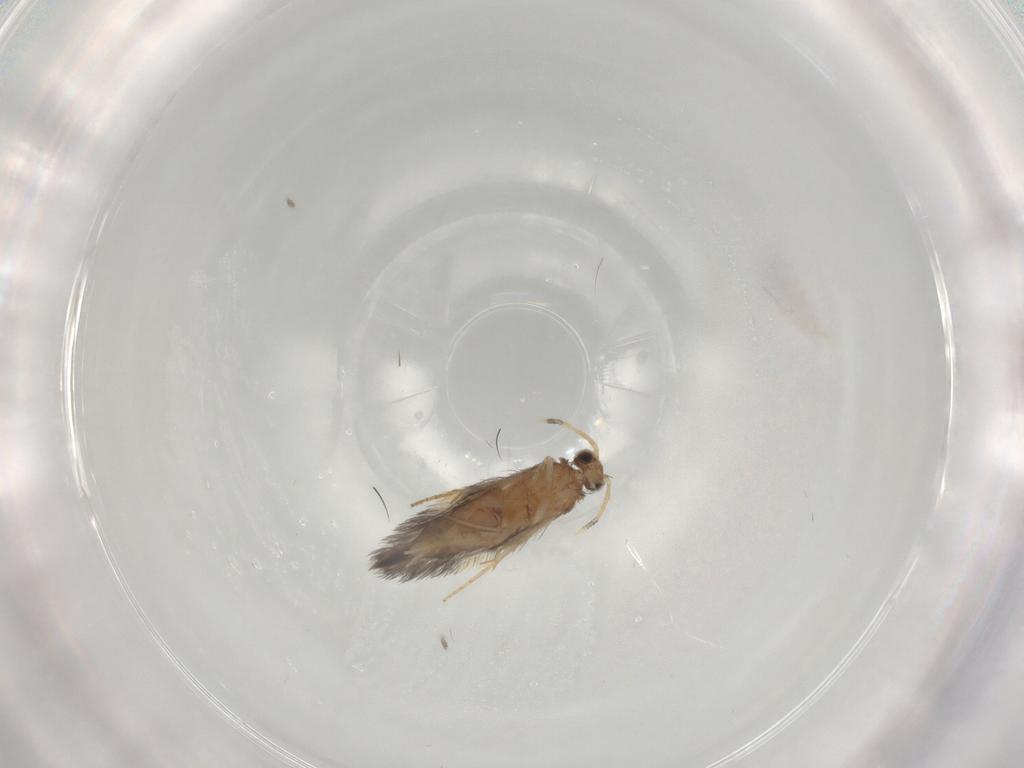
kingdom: Animalia
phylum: Arthropoda
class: Insecta
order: Trichoptera
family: Hydroptilidae
